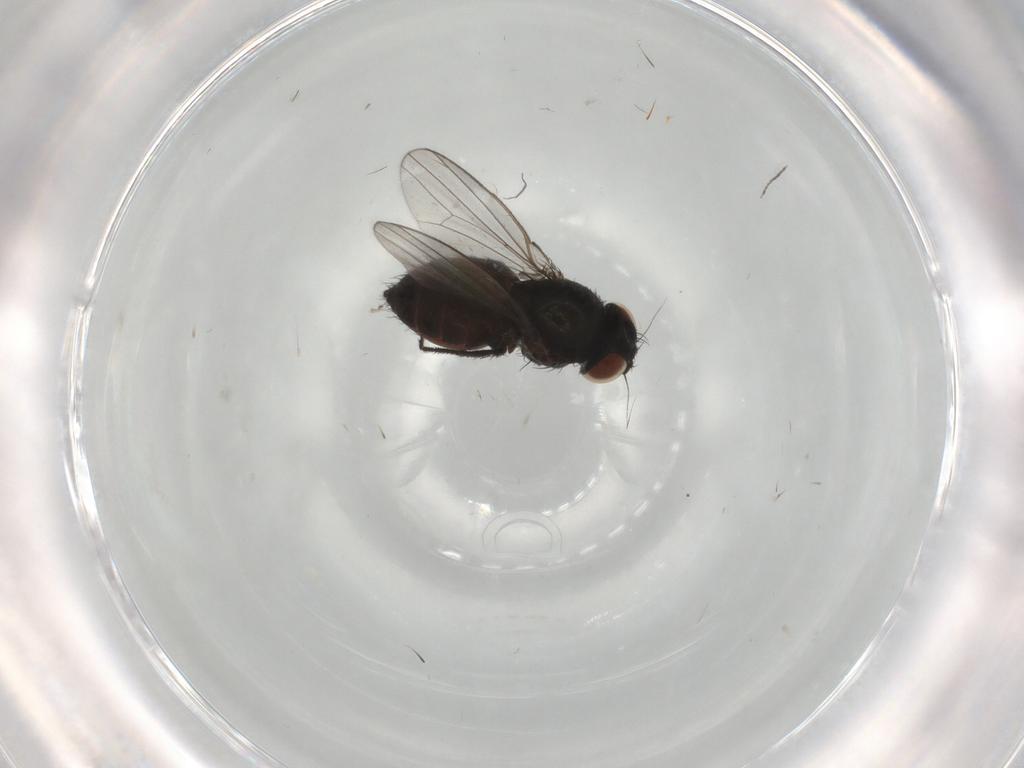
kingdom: Animalia
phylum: Arthropoda
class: Insecta
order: Diptera
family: Milichiidae
